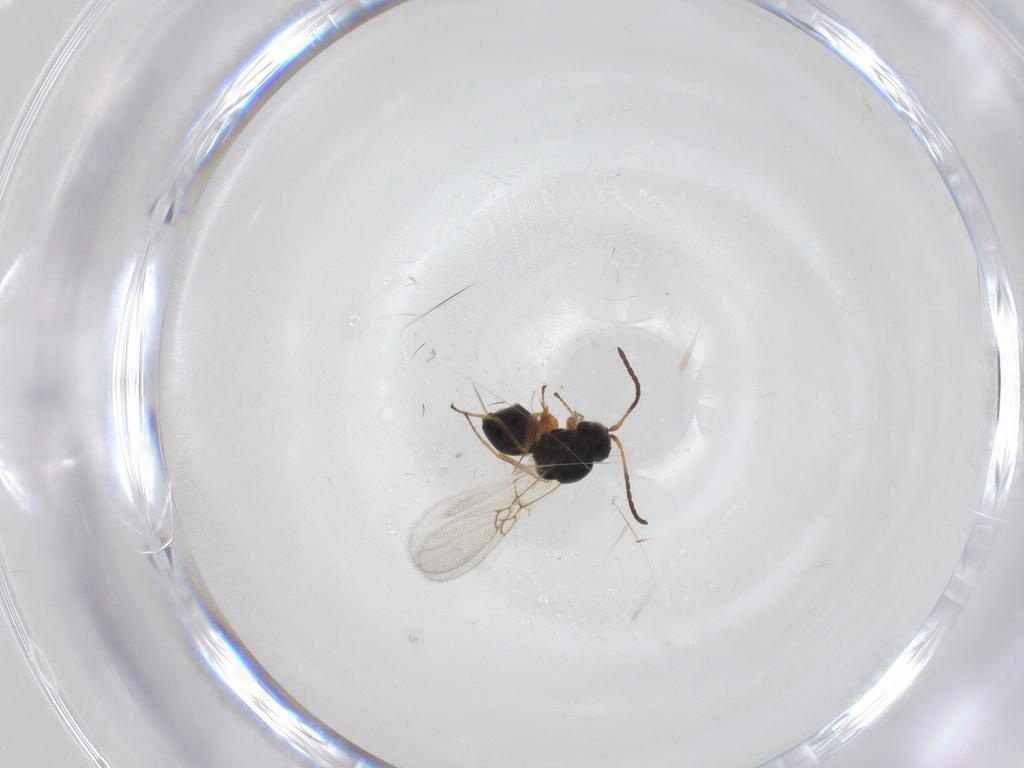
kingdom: Animalia
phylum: Arthropoda
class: Insecta
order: Hymenoptera
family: Figitidae
